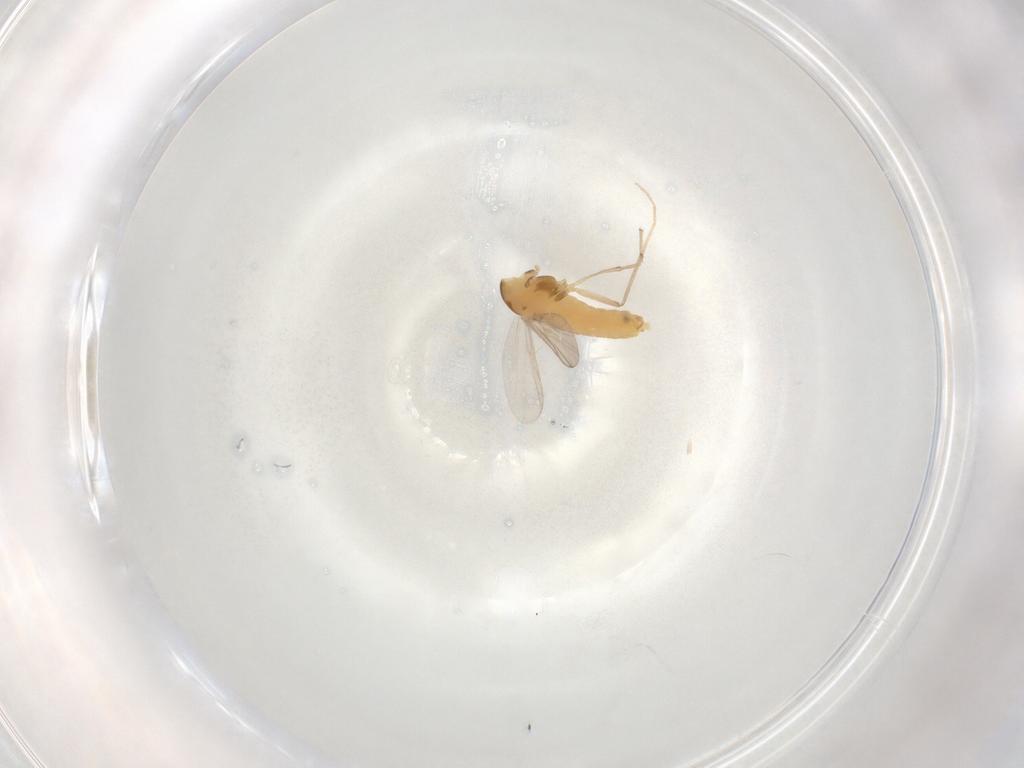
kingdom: Animalia
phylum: Arthropoda
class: Insecta
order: Diptera
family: Chironomidae
